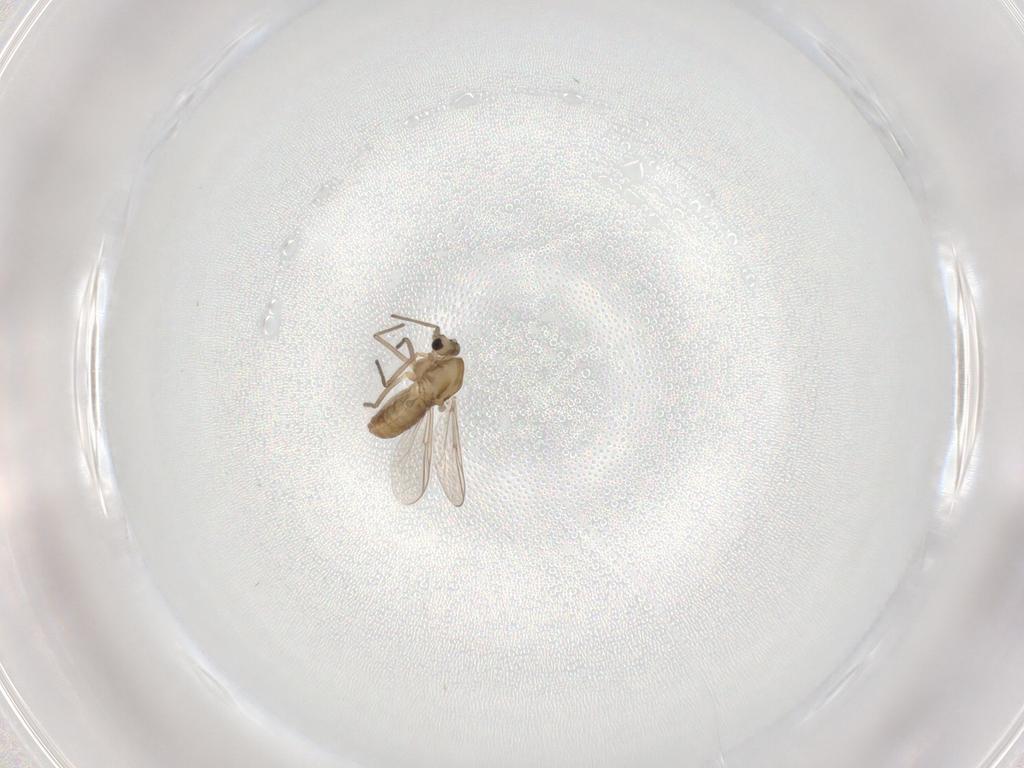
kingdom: Animalia
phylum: Arthropoda
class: Insecta
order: Diptera
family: Chironomidae
